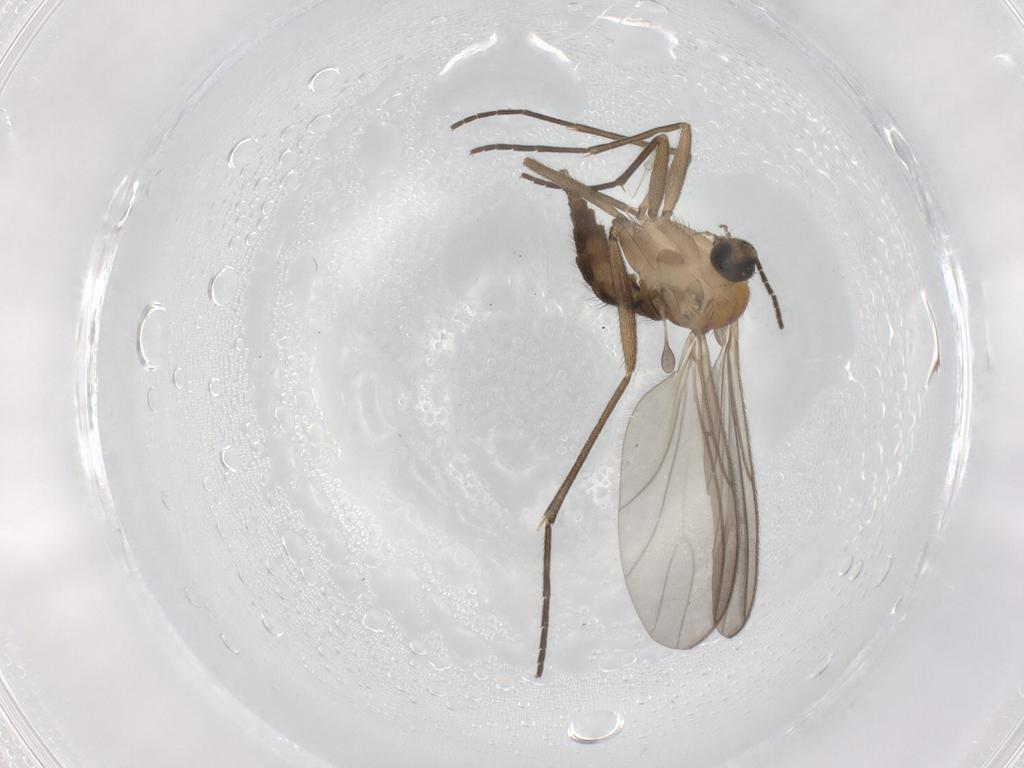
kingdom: Animalia
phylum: Arthropoda
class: Insecta
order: Diptera
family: Sciaridae
